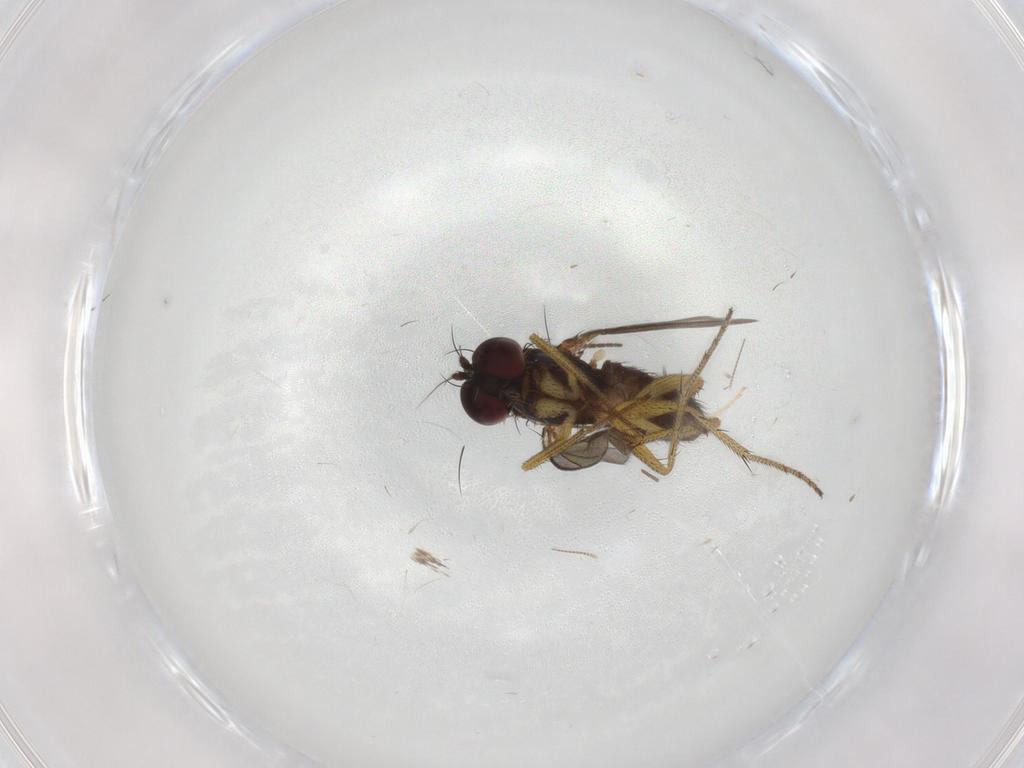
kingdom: Animalia
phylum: Arthropoda
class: Insecta
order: Diptera
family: Sciaridae
